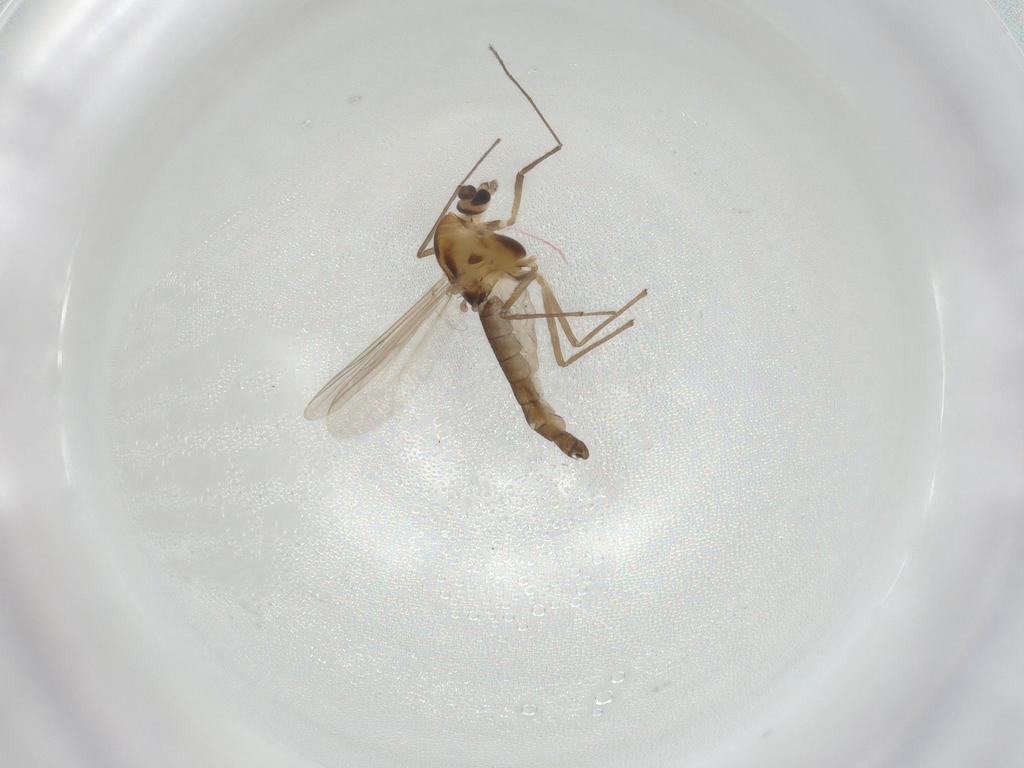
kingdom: Animalia
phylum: Arthropoda
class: Insecta
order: Diptera
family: Chironomidae
